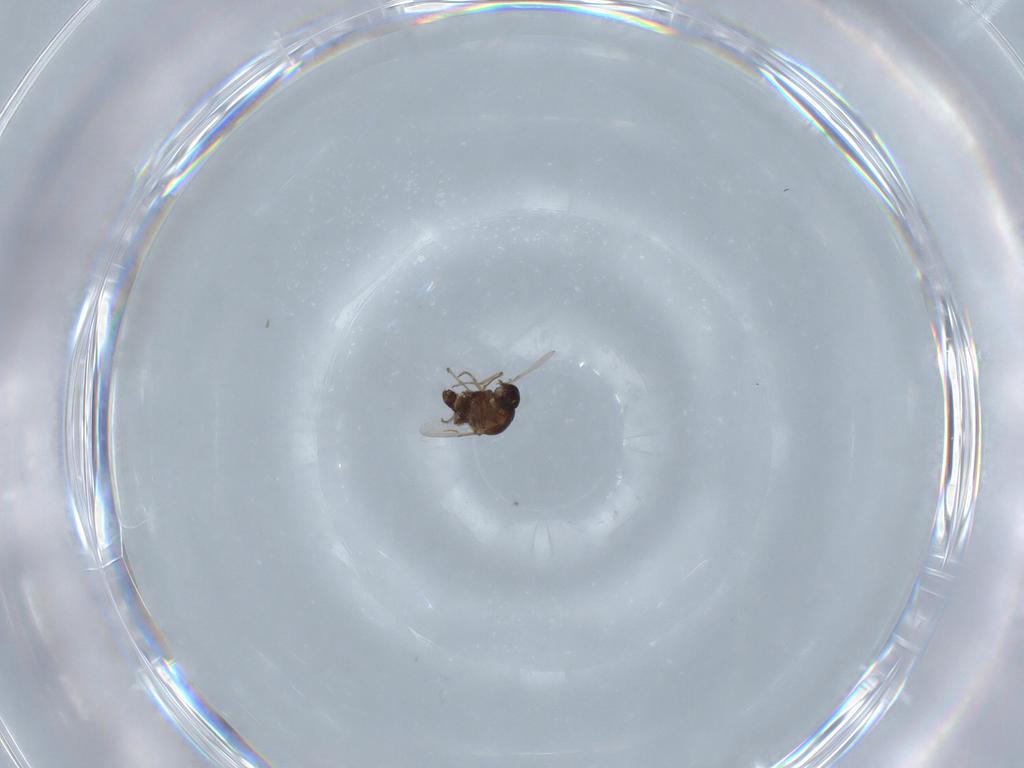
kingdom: Animalia
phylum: Arthropoda
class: Insecta
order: Diptera
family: Ceratopogonidae
